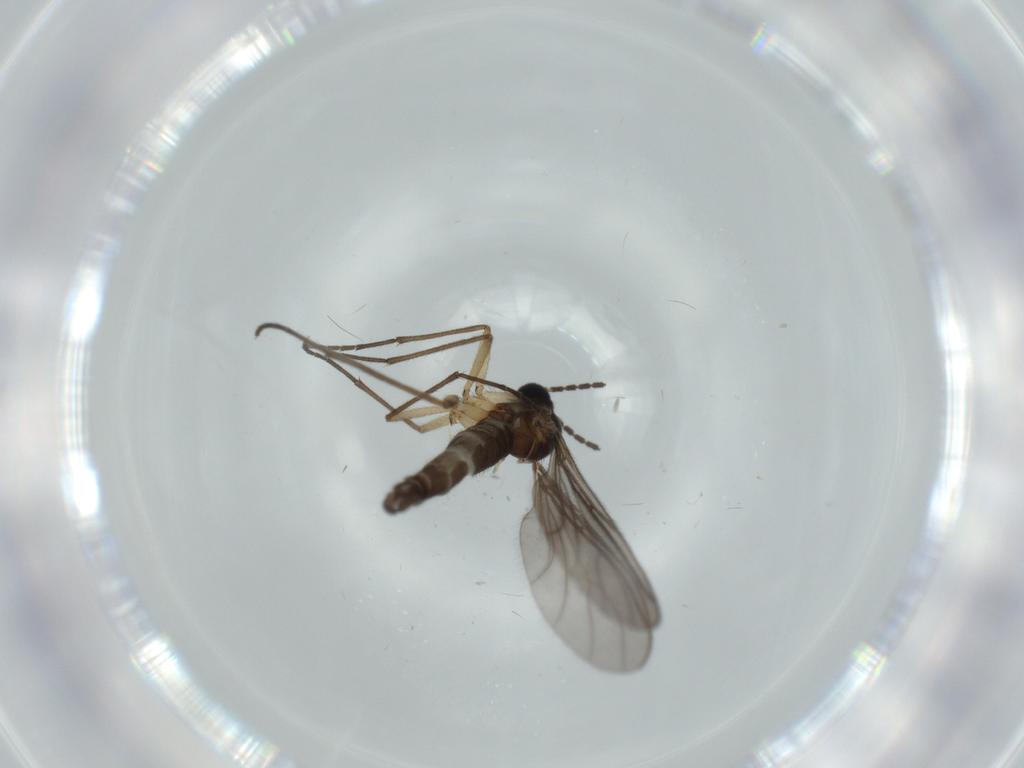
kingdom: Animalia
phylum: Arthropoda
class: Insecta
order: Diptera
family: Sciaridae
